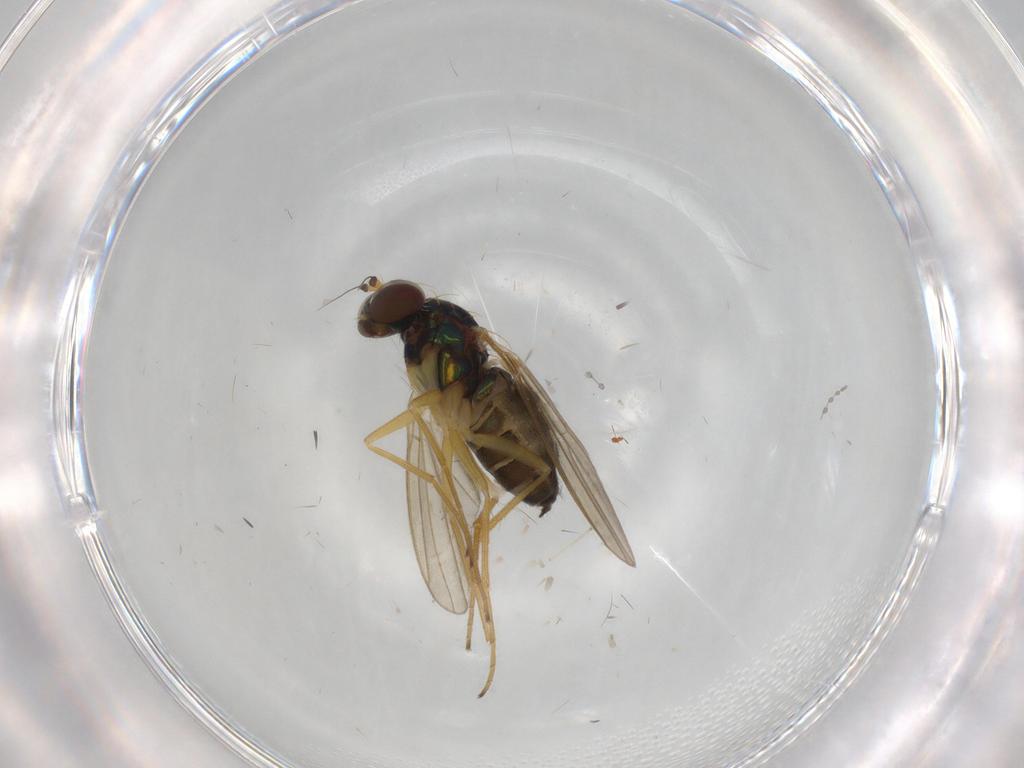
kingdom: Animalia
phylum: Arthropoda
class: Insecta
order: Diptera
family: Dolichopodidae
